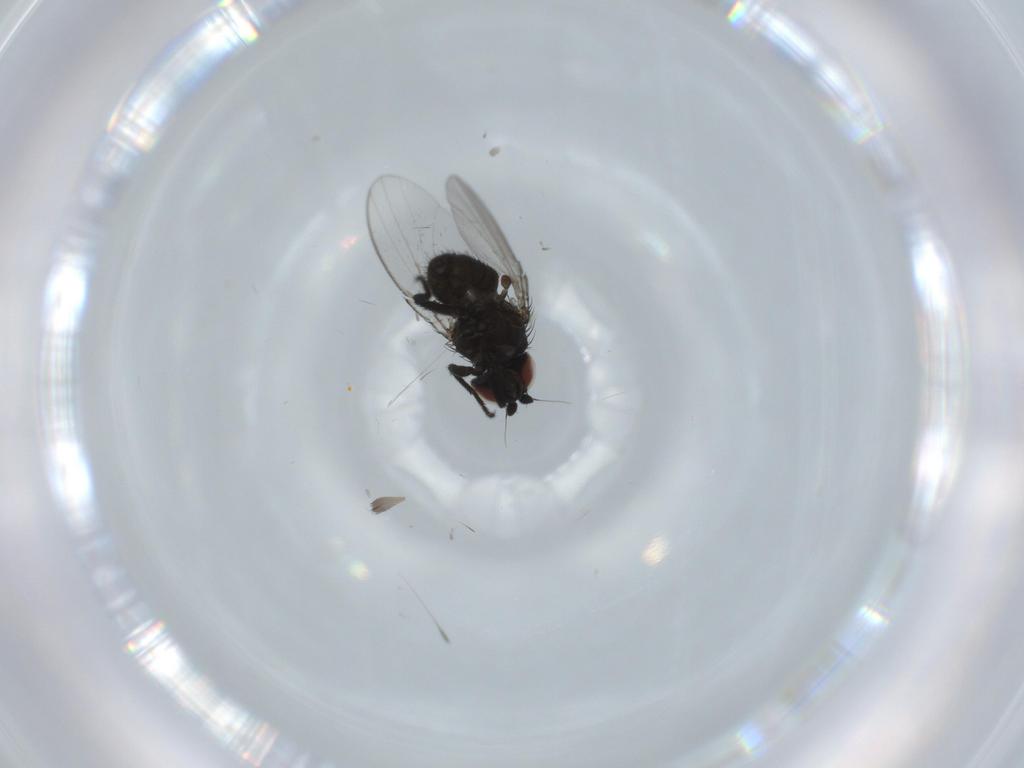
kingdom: Animalia
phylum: Arthropoda
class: Insecta
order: Diptera
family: Milichiidae
